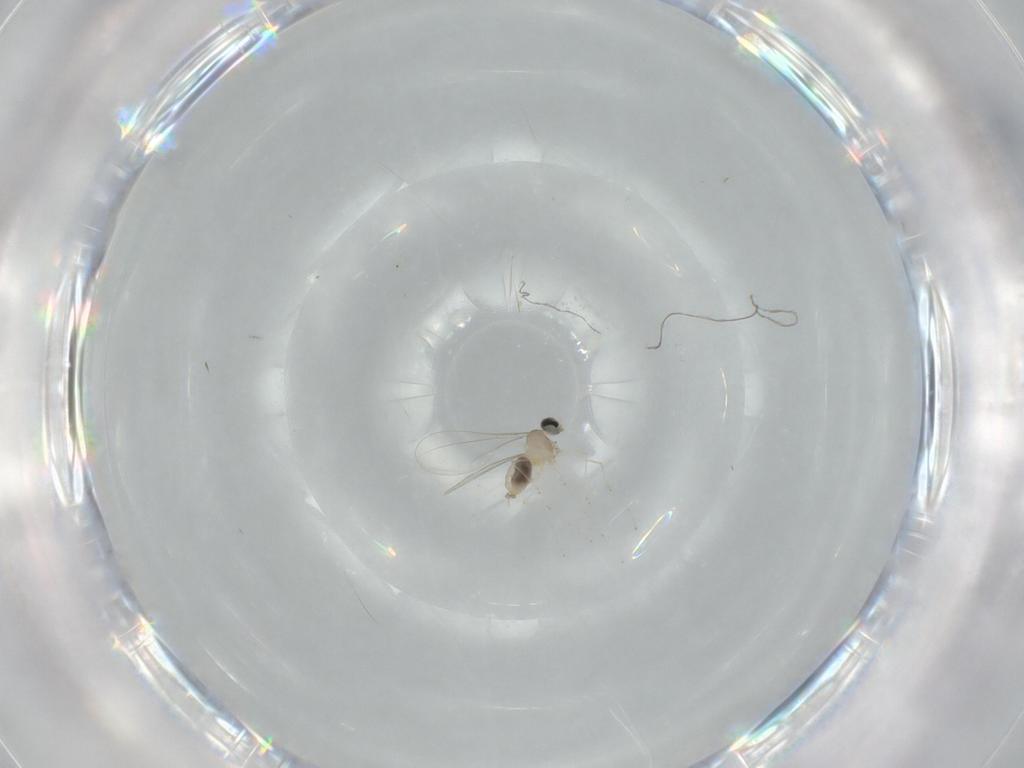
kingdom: Animalia
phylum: Arthropoda
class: Insecta
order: Diptera
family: Cecidomyiidae
